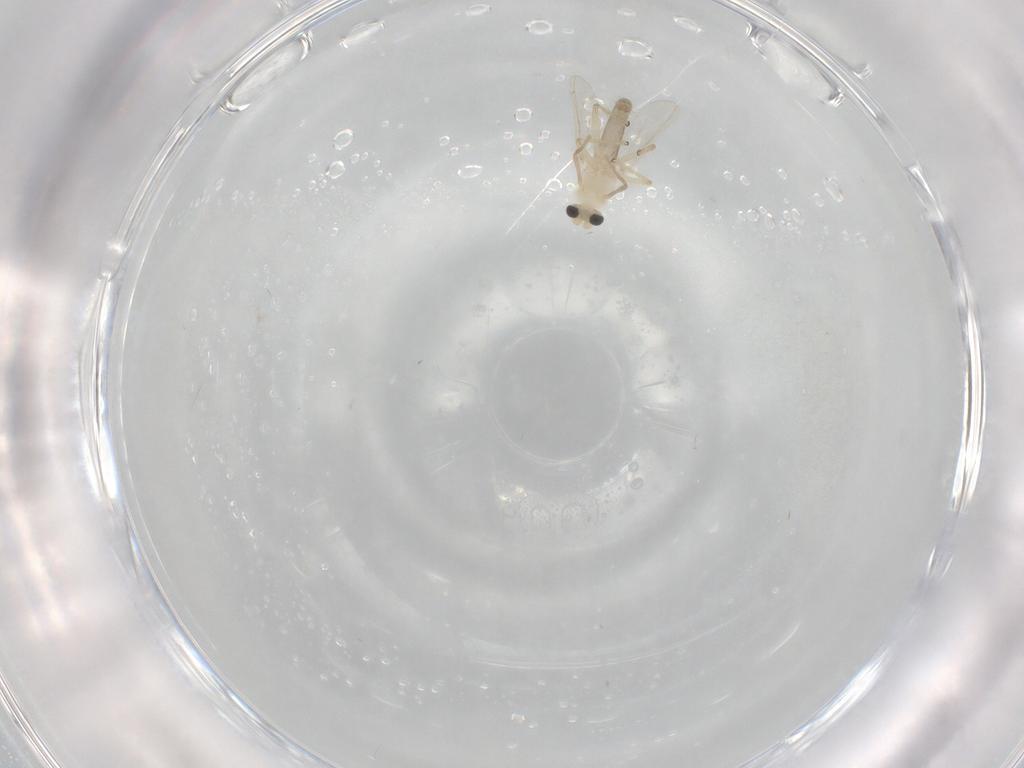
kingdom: Animalia
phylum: Arthropoda
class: Insecta
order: Diptera
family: Chironomidae
